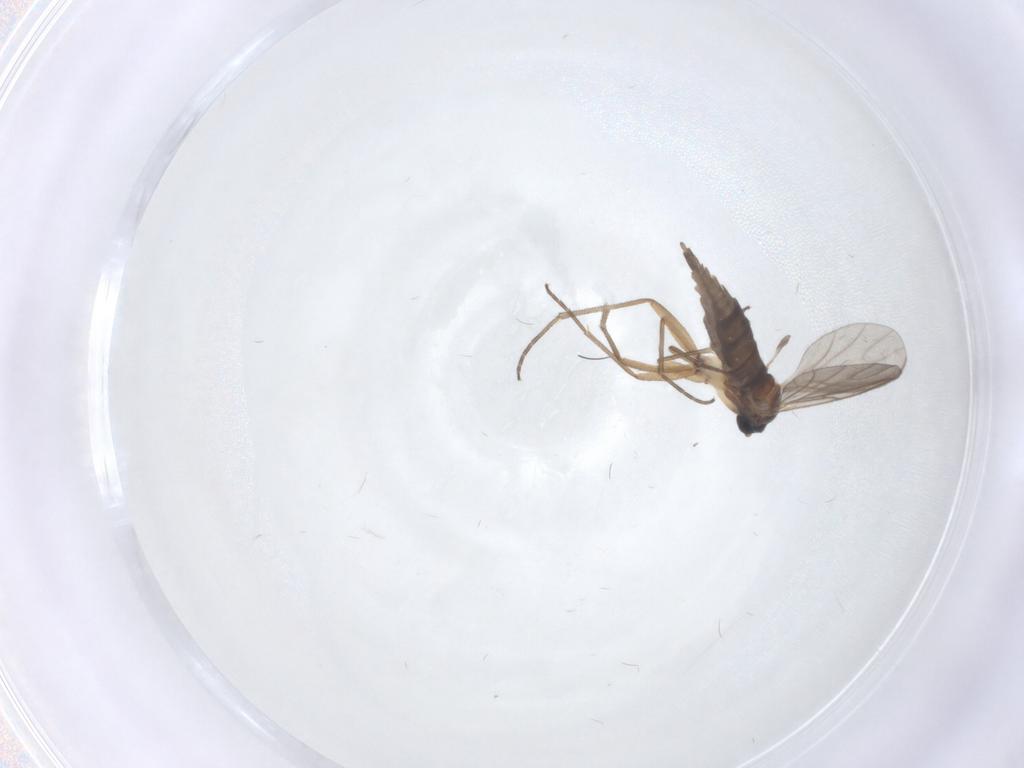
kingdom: Animalia
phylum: Arthropoda
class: Insecta
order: Diptera
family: Sciaridae
